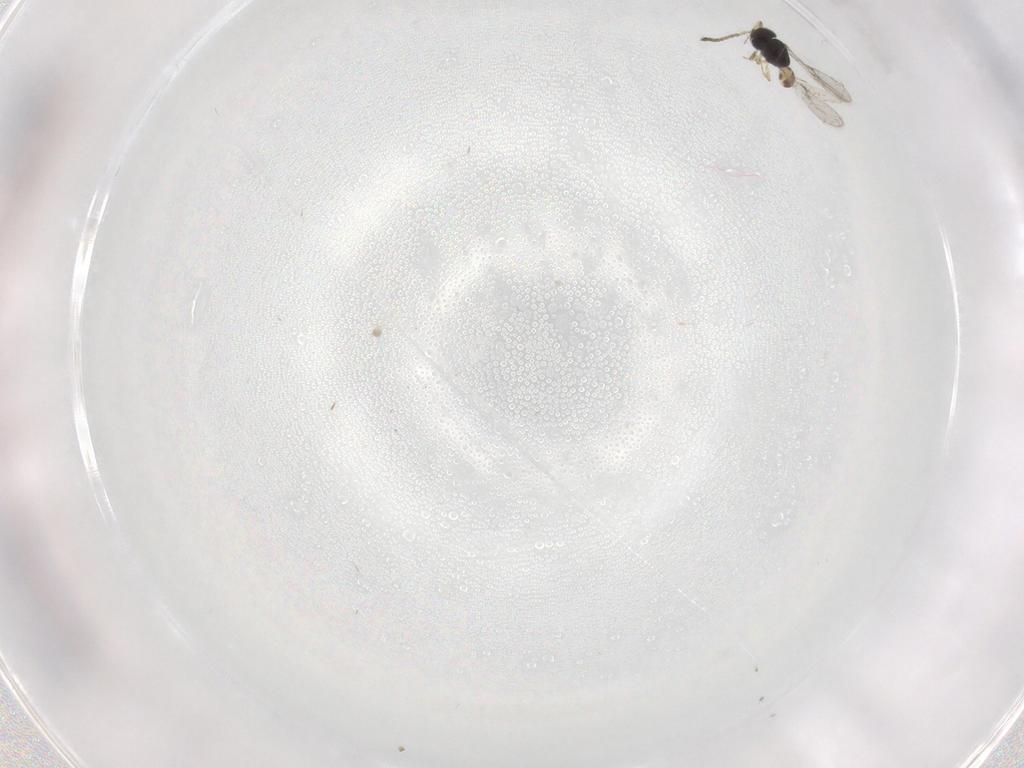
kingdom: Animalia
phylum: Arthropoda
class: Insecta
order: Hymenoptera
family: Scelionidae
